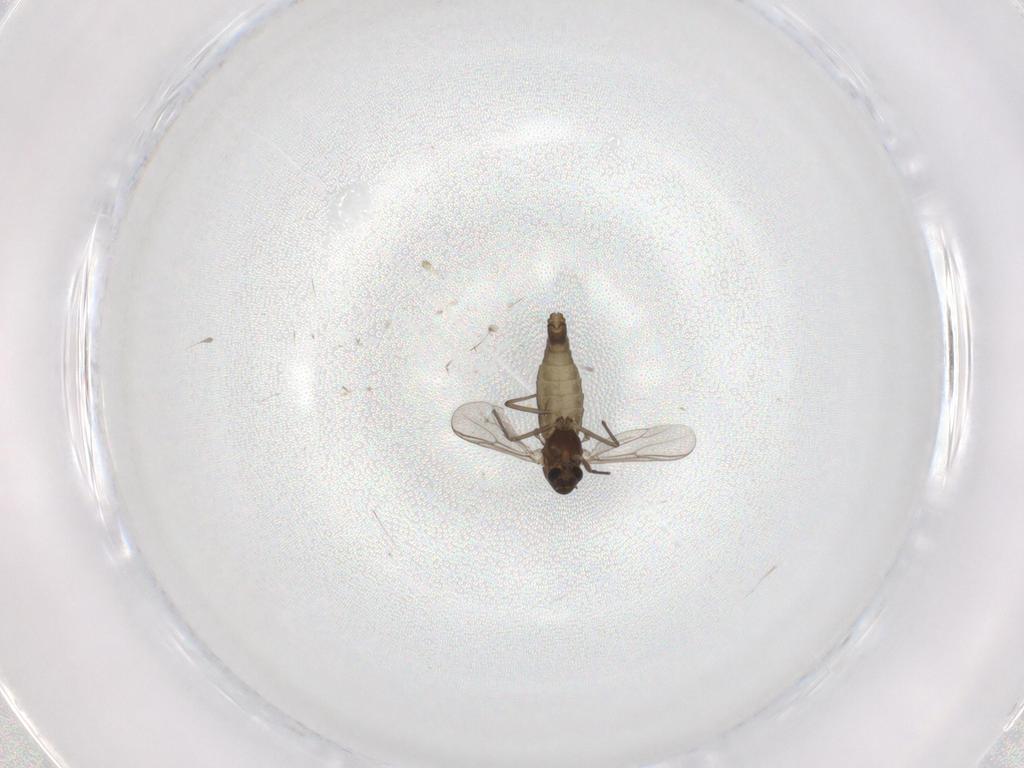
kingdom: Animalia
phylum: Arthropoda
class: Insecta
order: Diptera
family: Chironomidae
